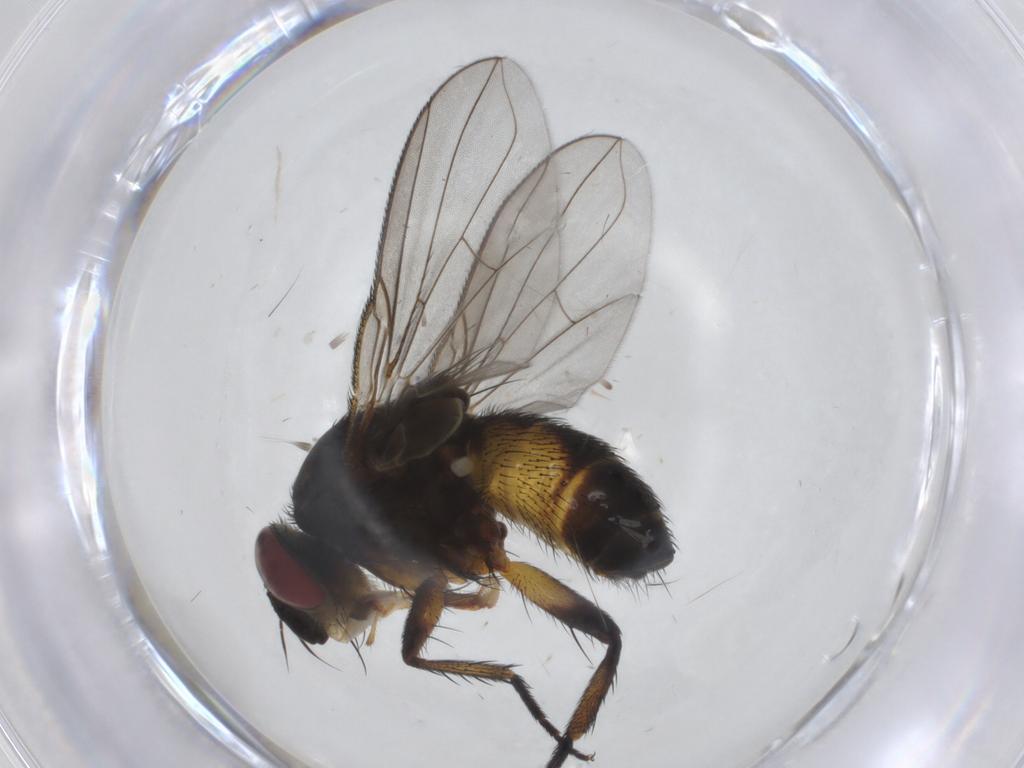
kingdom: Animalia
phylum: Arthropoda
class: Insecta
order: Diptera
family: Tachinidae
